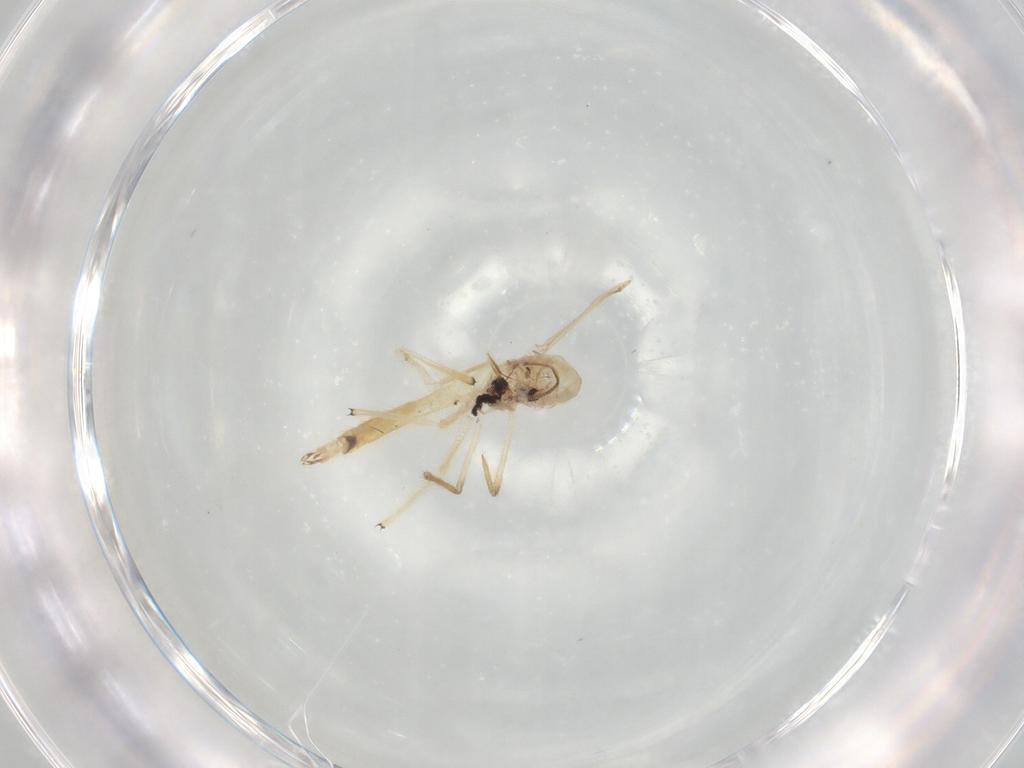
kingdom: Animalia
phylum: Arthropoda
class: Insecta
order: Diptera
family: Chironomidae
